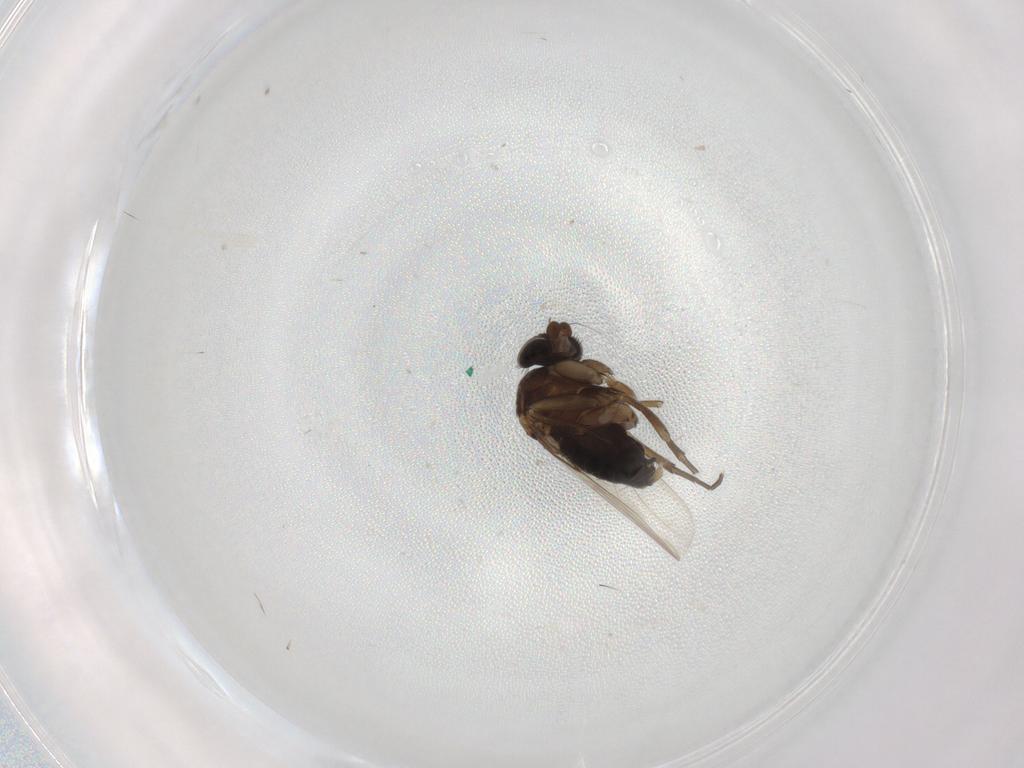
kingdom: Animalia
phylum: Arthropoda
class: Insecta
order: Diptera
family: Phoridae
